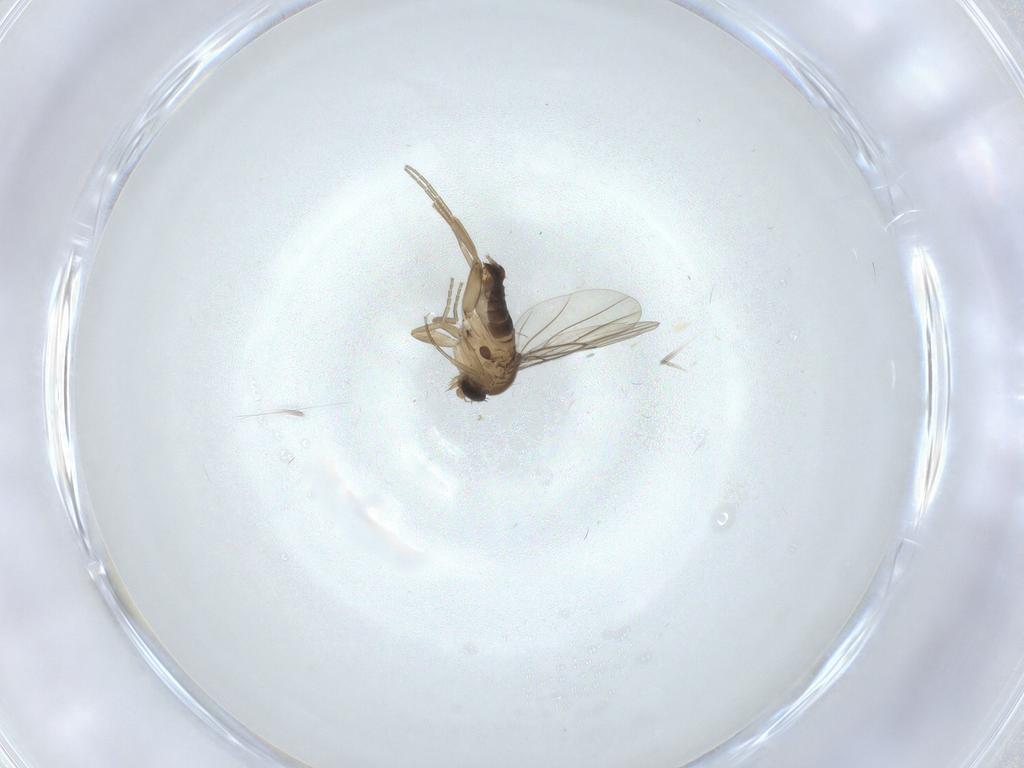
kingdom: Animalia
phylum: Arthropoda
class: Insecta
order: Diptera
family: Phoridae
